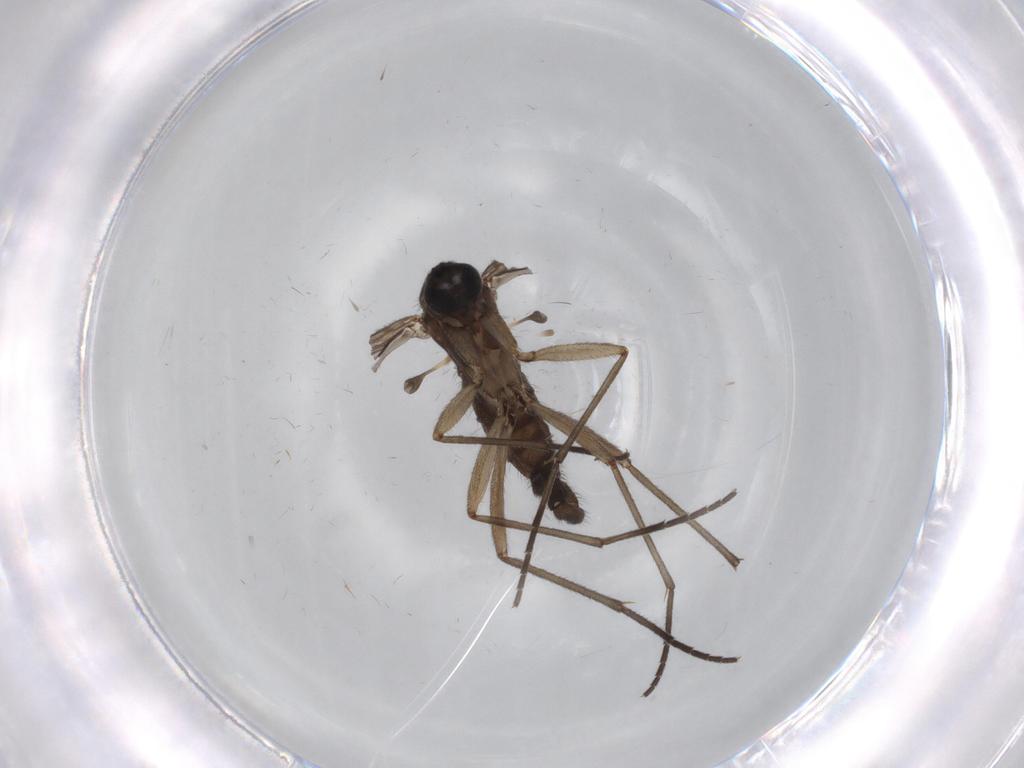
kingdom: Animalia
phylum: Arthropoda
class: Insecta
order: Diptera
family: Sciaridae
